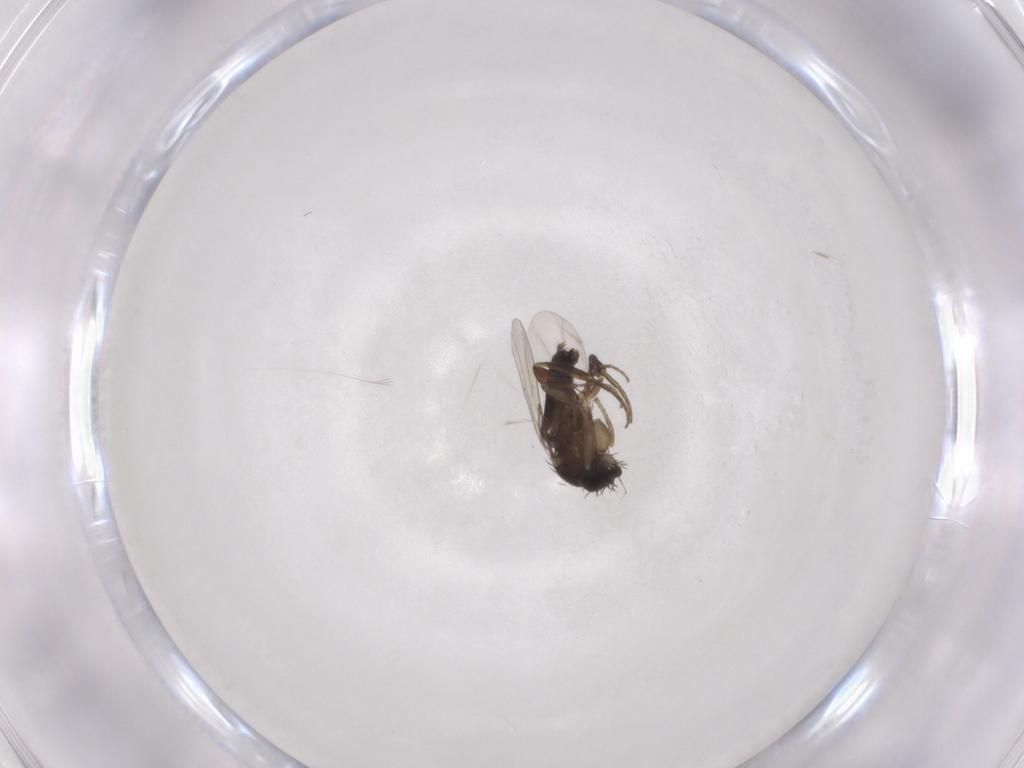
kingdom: Animalia
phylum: Arthropoda
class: Insecta
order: Diptera
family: Phoridae
